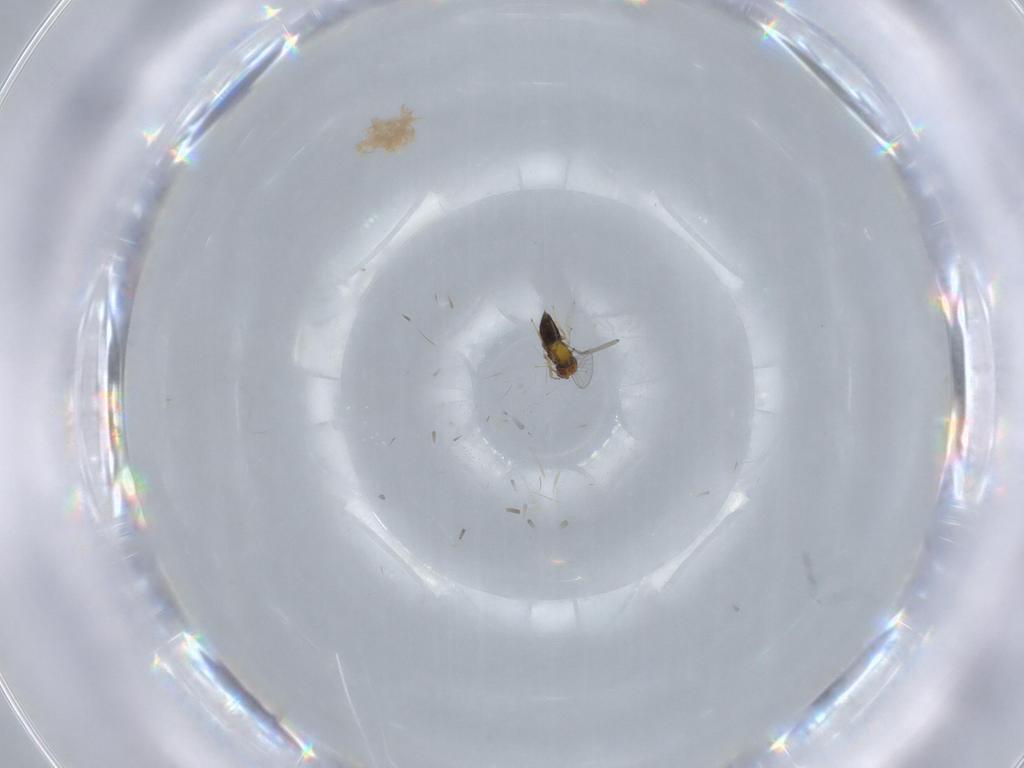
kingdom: Animalia
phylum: Arthropoda
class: Insecta
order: Hymenoptera
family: Trichogrammatidae
